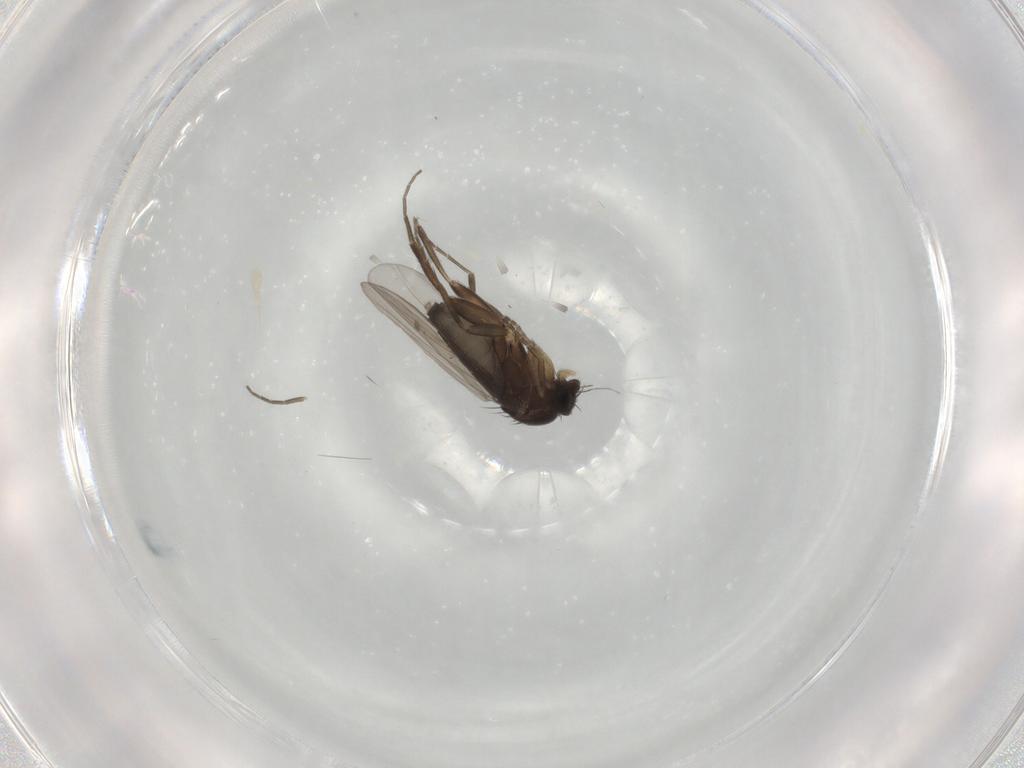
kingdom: Animalia
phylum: Arthropoda
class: Insecta
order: Diptera
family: Phoridae
